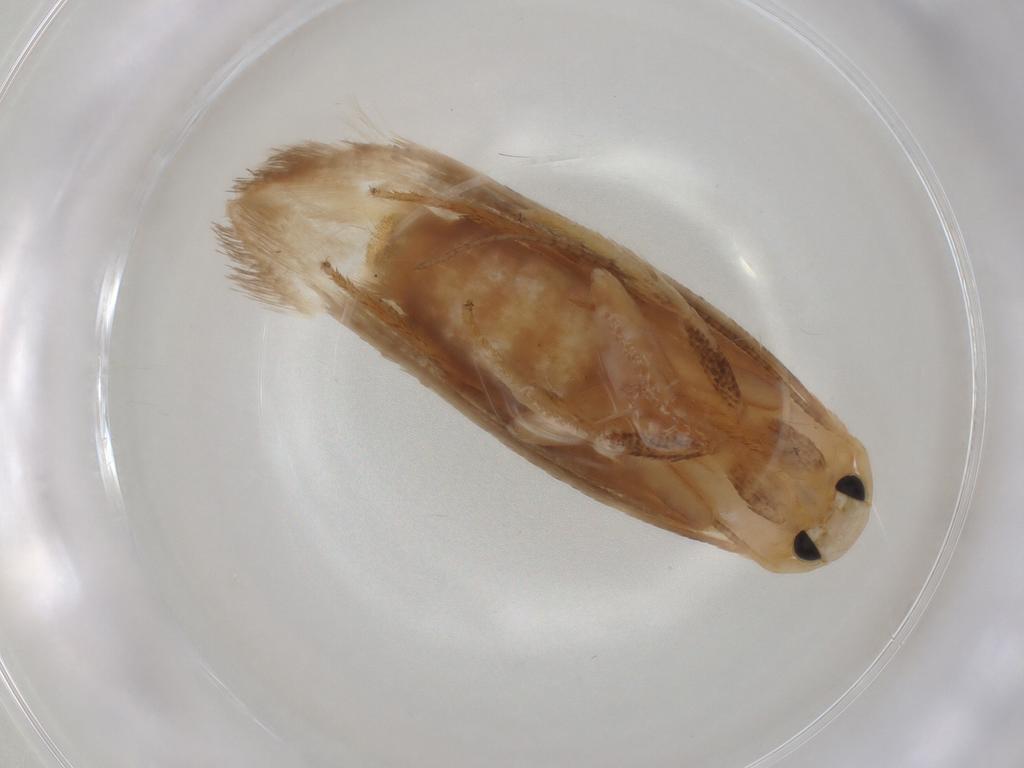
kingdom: Animalia
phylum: Arthropoda
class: Insecta
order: Lepidoptera
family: Geometridae
